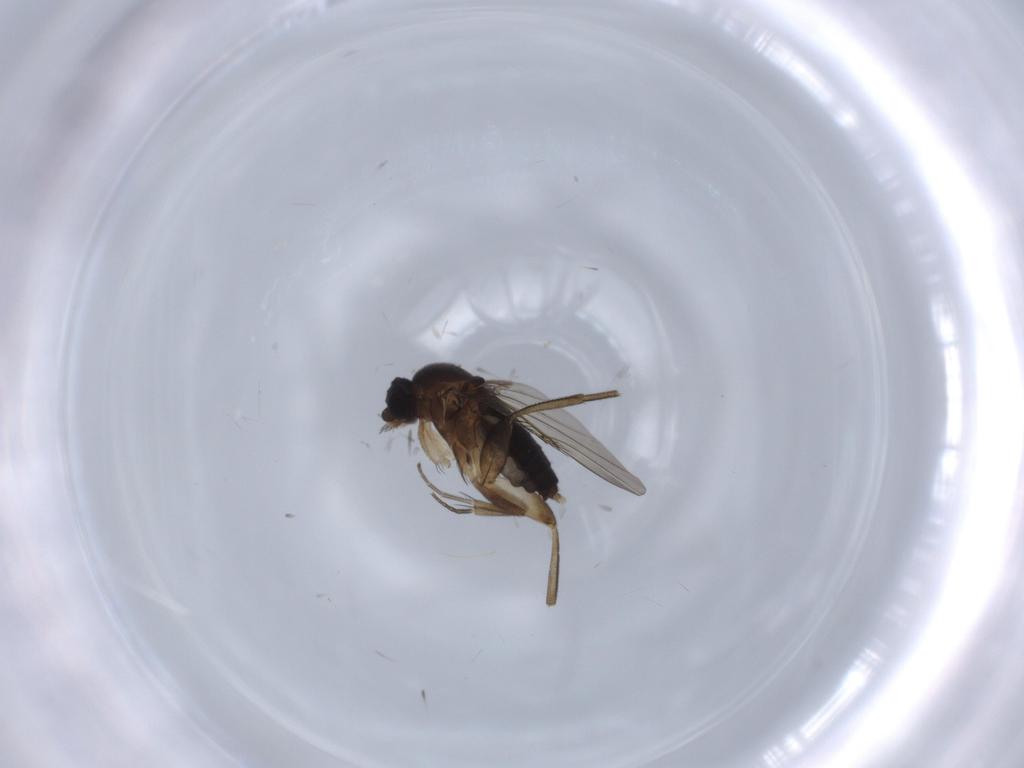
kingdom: Animalia
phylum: Arthropoda
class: Insecta
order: Diptera
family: Phoridae
